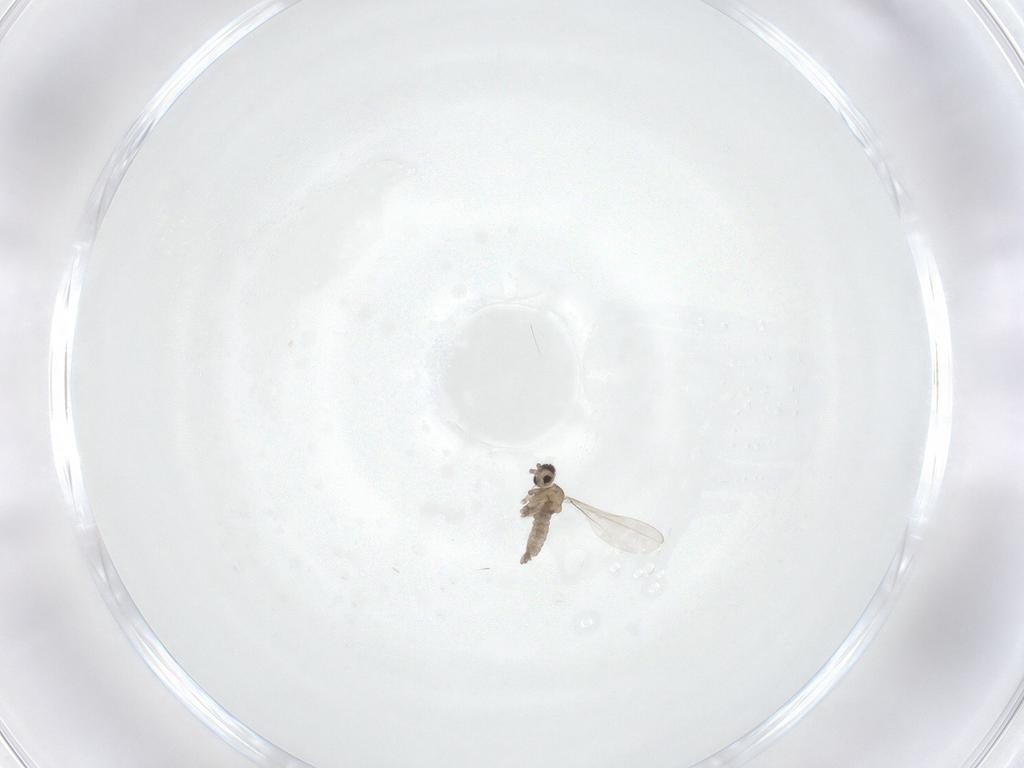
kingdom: Animalia
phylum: Arthropoda
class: Insecta
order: Diptera
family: Cecidomyiidae
